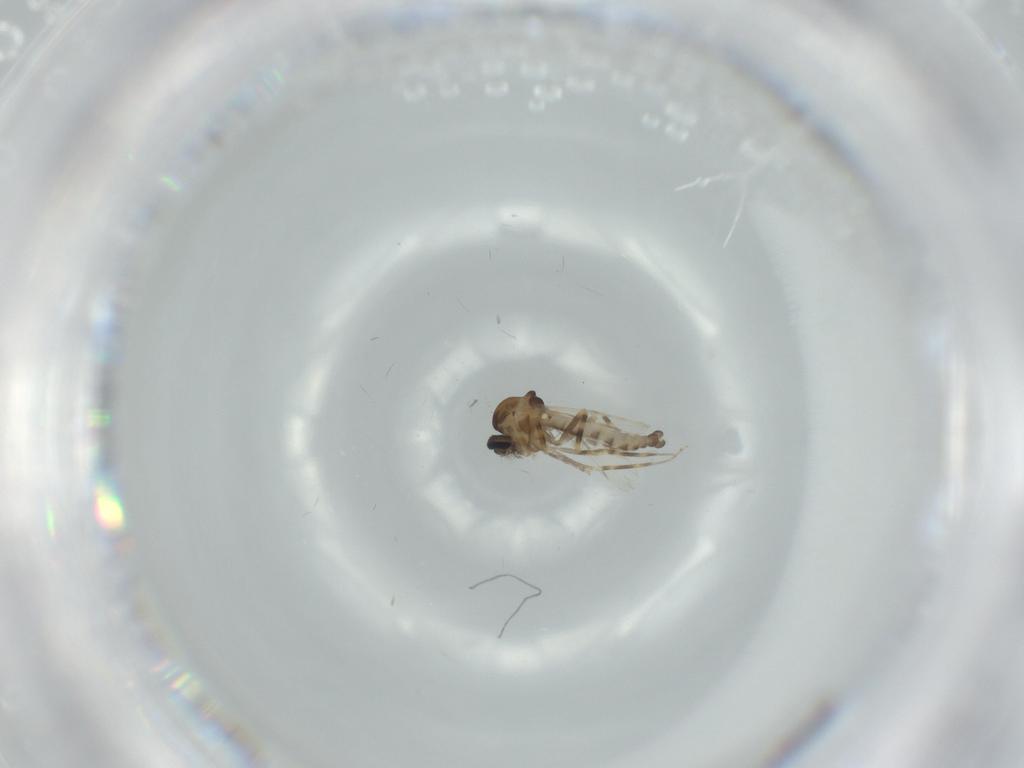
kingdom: Animalia
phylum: Arthropoda
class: Insecta
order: Diptera
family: Ceratopogonidae
